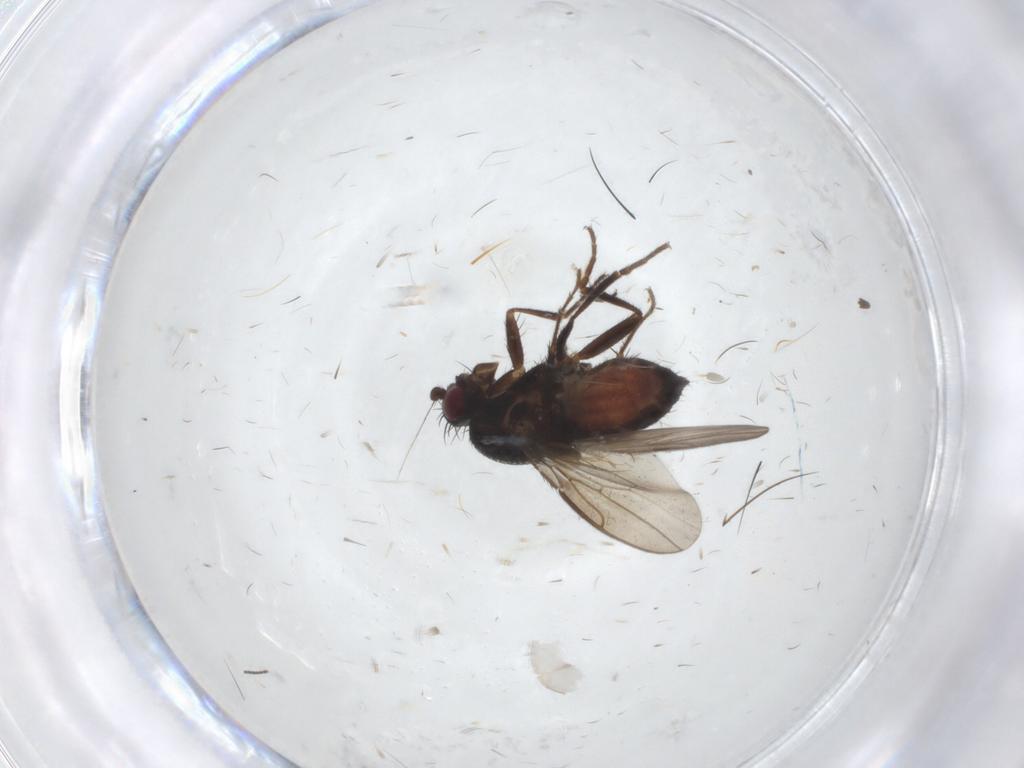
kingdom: Animalia
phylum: Arthropoda
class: Insecta
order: Diptera
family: Sphaeroceridae
